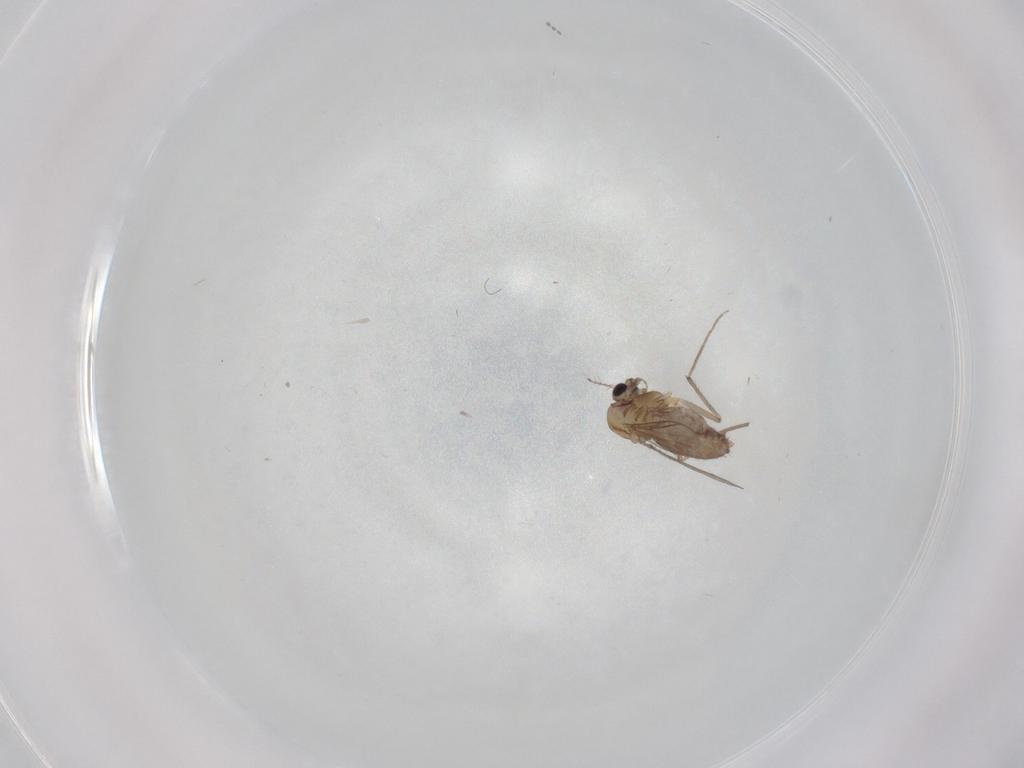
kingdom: Animalia
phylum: Arthropoda
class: Insecta
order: Diptera
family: Chironomidae
